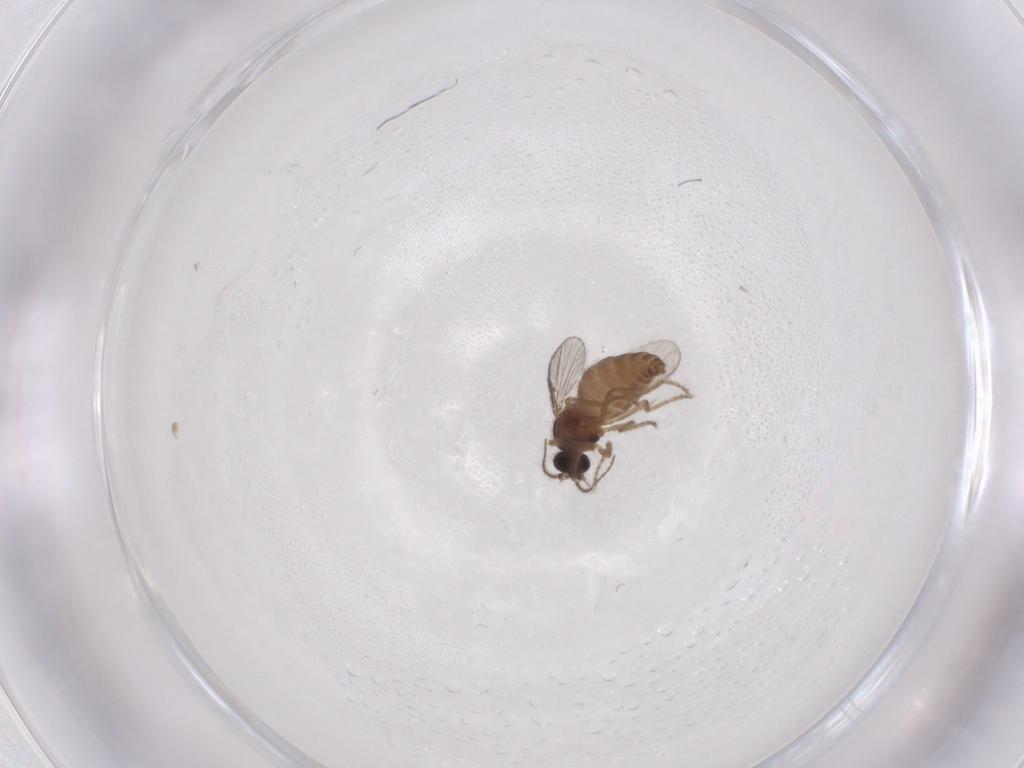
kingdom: Animalia
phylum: Arthropoda
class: Insecta
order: Diptera
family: Ceratopogonidae
